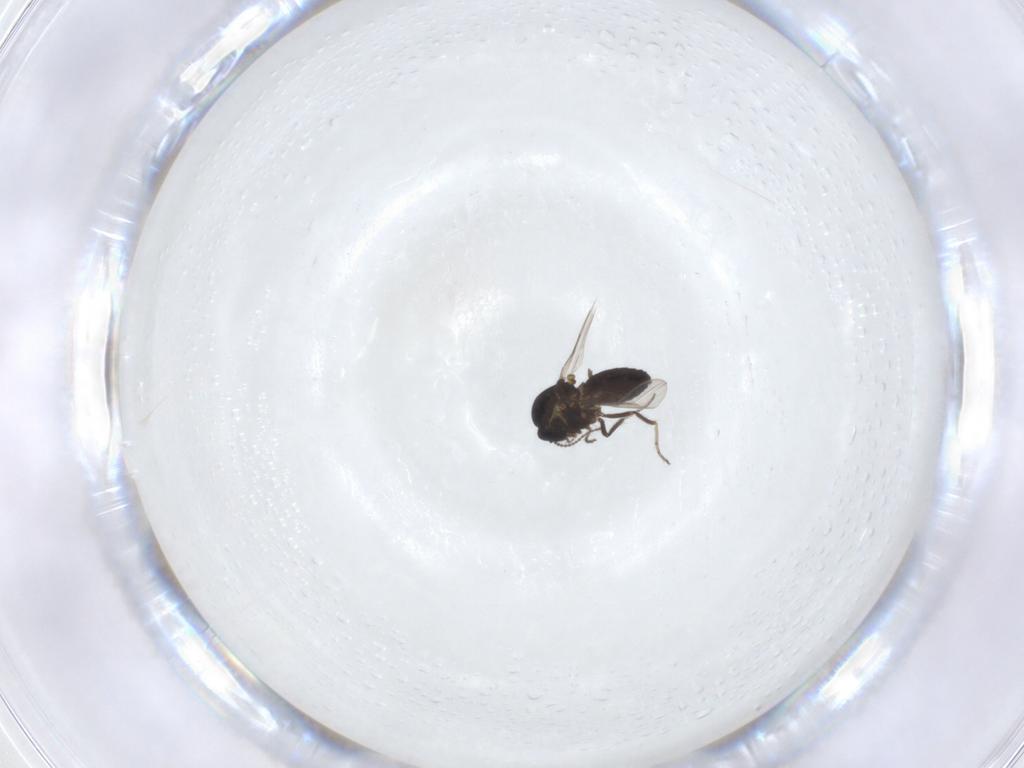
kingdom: Animalia
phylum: Arthropoda
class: Insecta
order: Diptera
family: Ceratopogonidae
